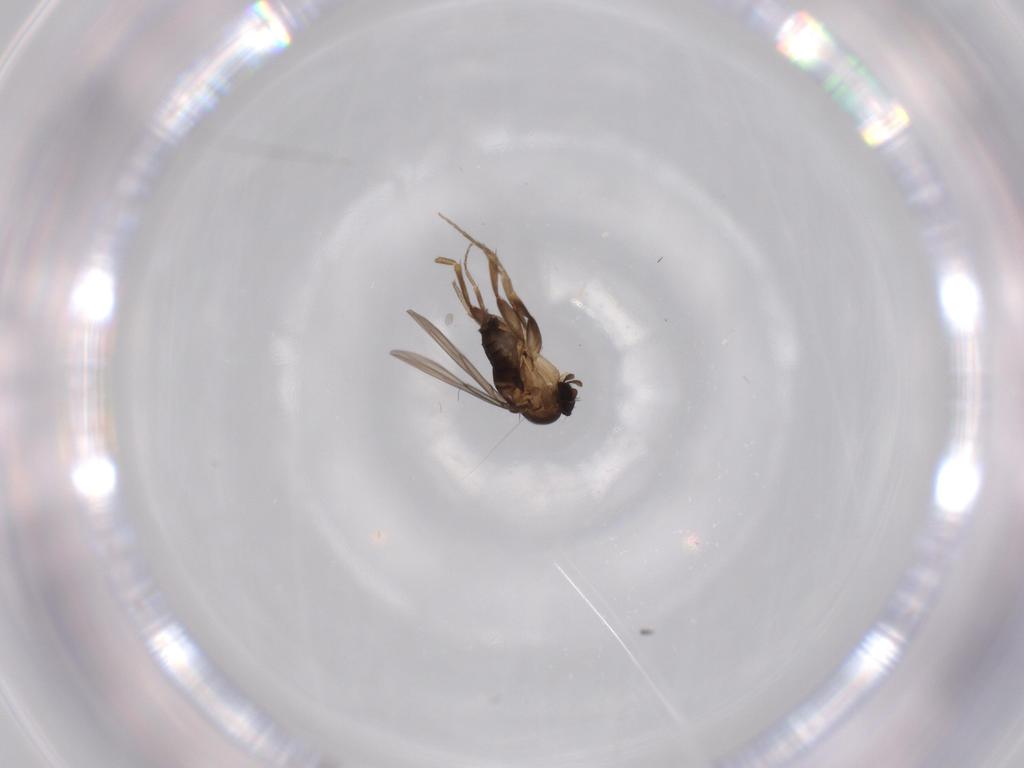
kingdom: Animalia
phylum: Arthropoda
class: Insecta
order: Diptera
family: Phoridae
